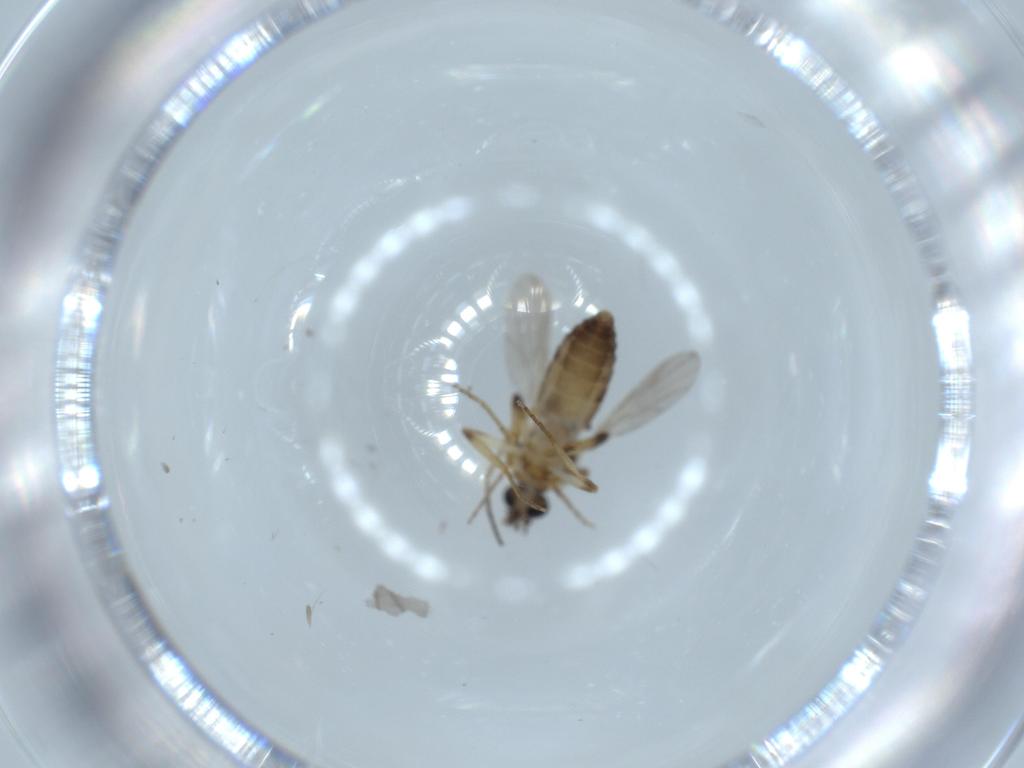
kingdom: Animalia
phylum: Arthropoda
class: Insecta
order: Diptera
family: Ceratopogonidae
